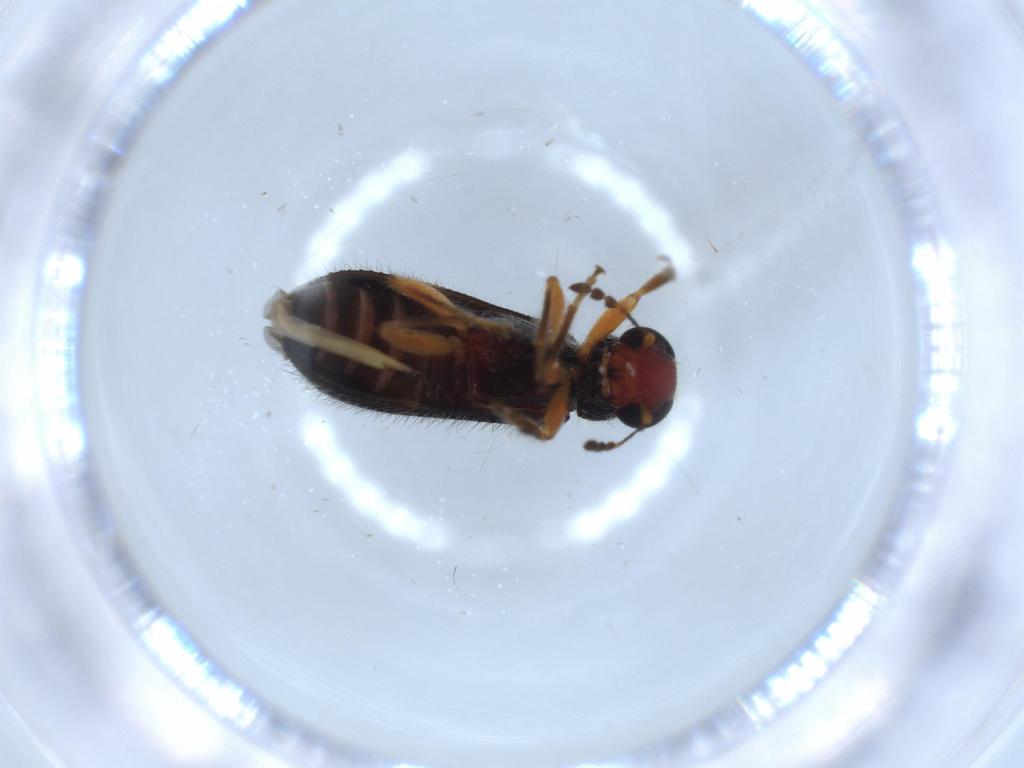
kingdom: Animalia
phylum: Arthropoda
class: Insecta
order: Coleoptera
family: Cleridae
